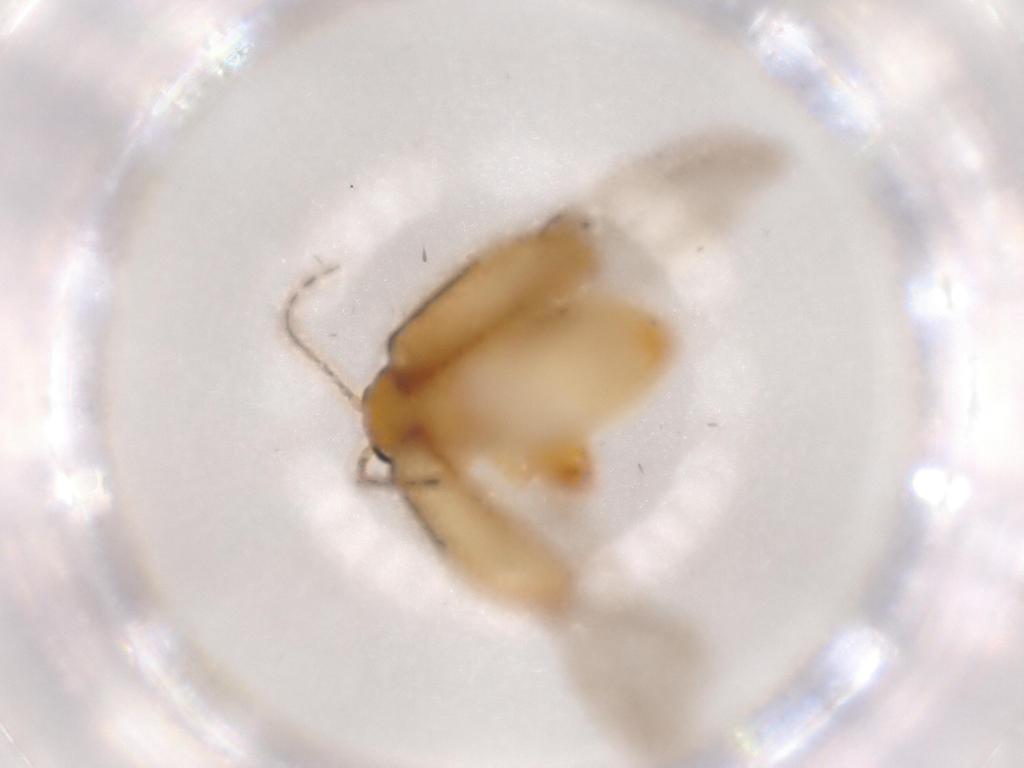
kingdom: Animalia
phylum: Arthropoda
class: Insecta
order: Coleoptera
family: Chrysomelidae
